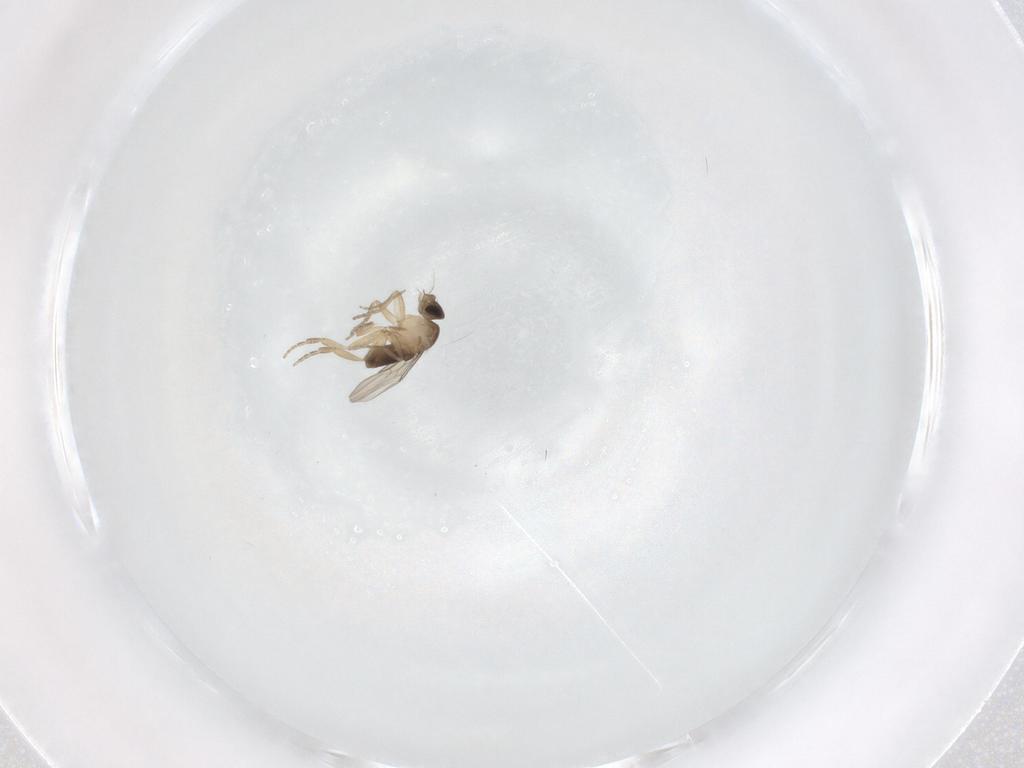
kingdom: Animalia
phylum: Arthropoda
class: Insecta
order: Diptera
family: Phoridae
